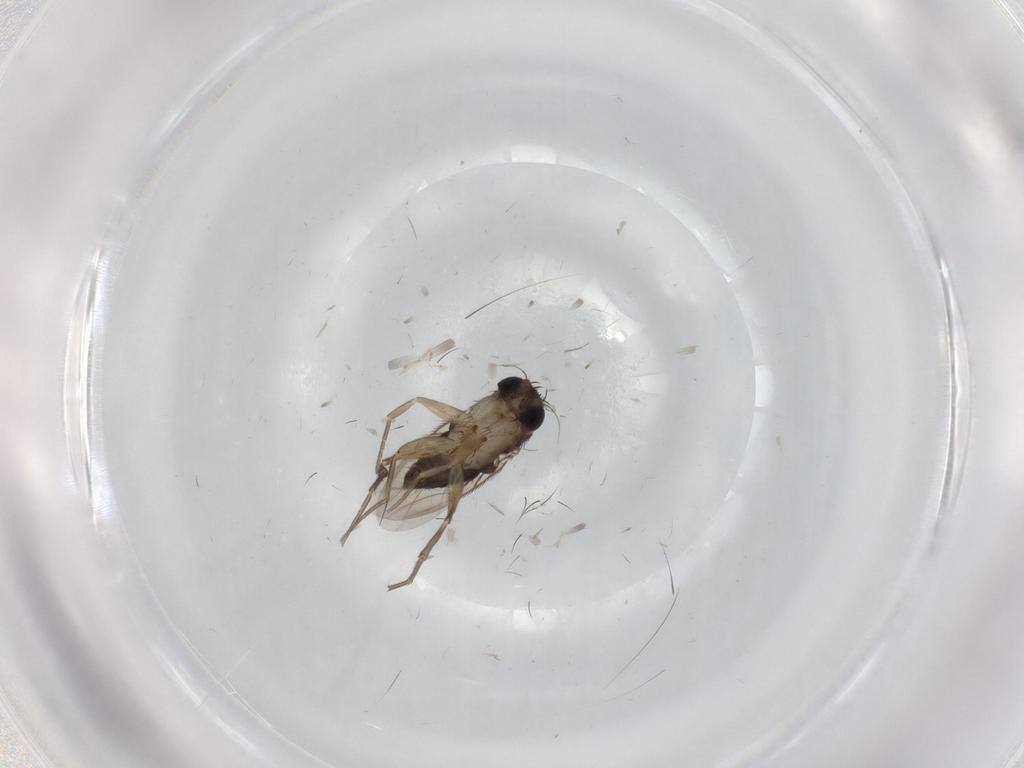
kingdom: Animalia
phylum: Arthropoda
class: Insecta
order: Diptera
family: Phoridae
